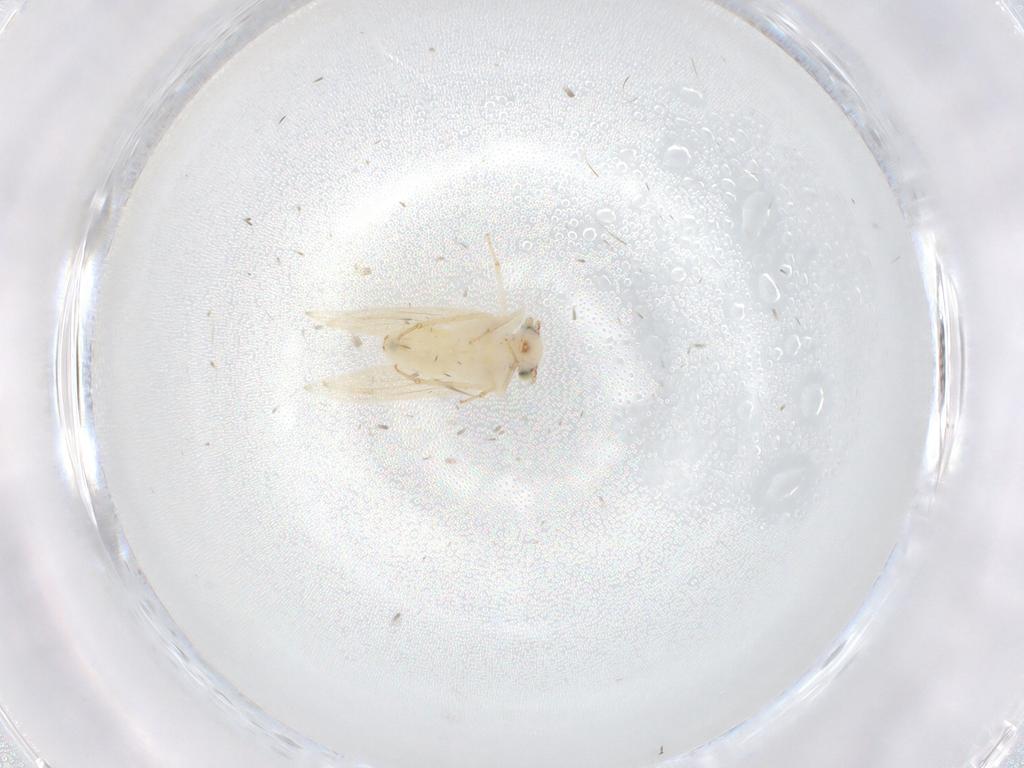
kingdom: Animalia
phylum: Arthropoda
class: Insecta
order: Psocodea
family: Lepidopsocidae
